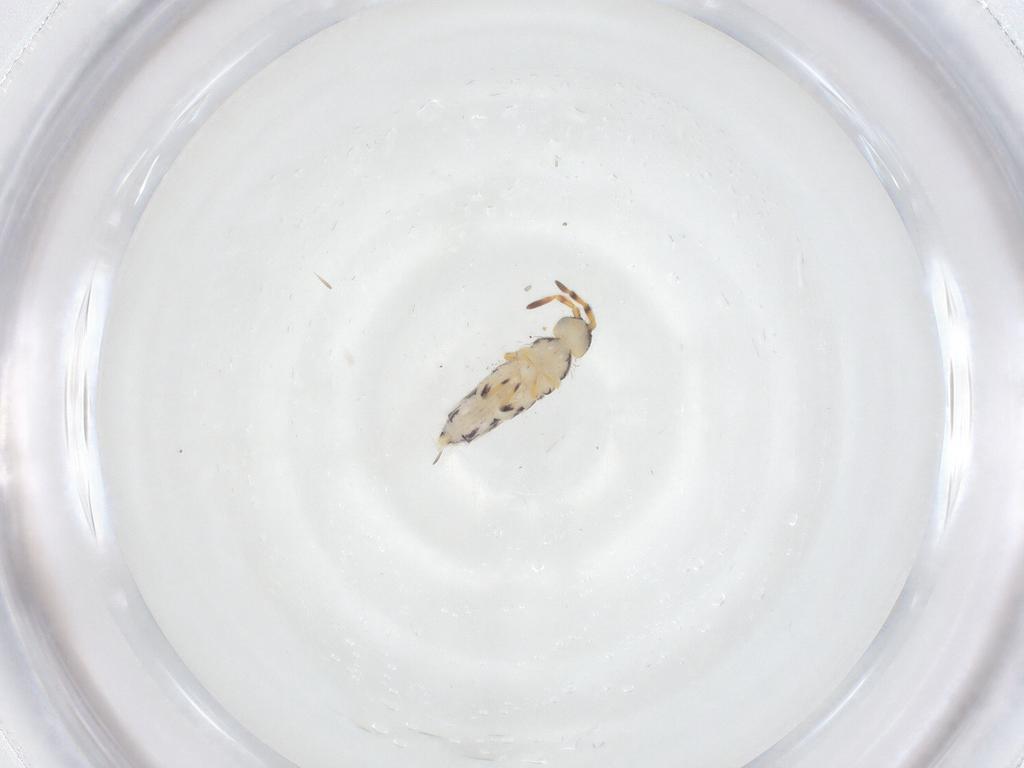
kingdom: Animalia
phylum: Arthropoda
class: Collembola
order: Entomobryomorpha
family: Isotomidae
